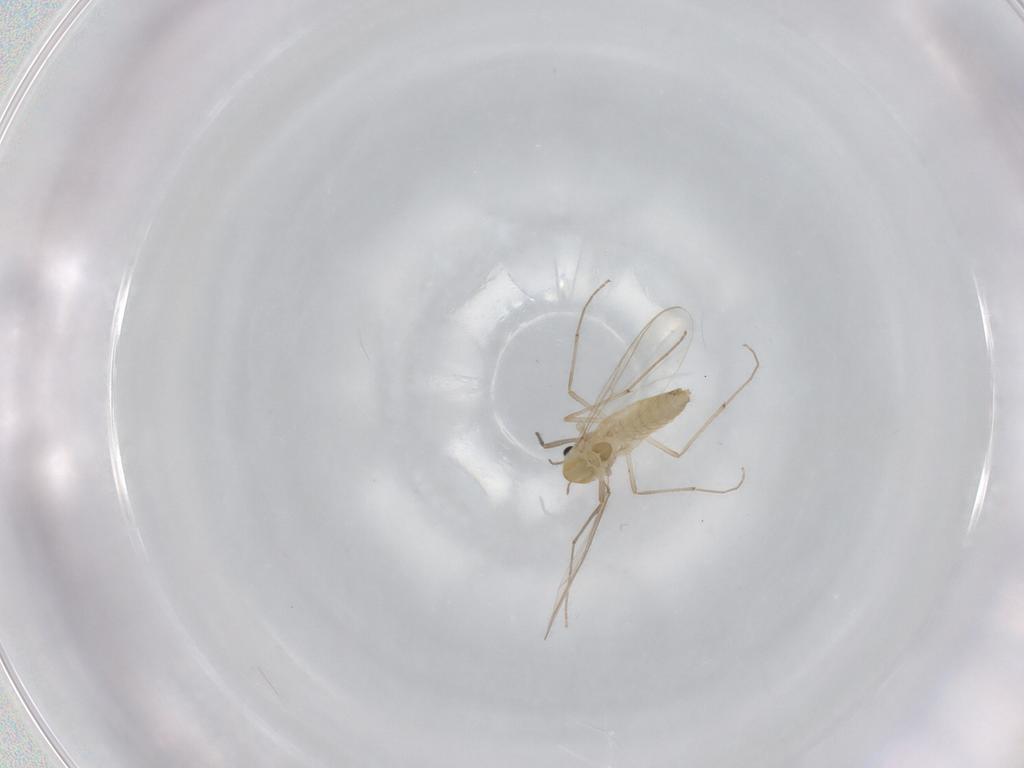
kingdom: Animalia
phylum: Arthropoda
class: Insecta
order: Diptera
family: Chironomidae
